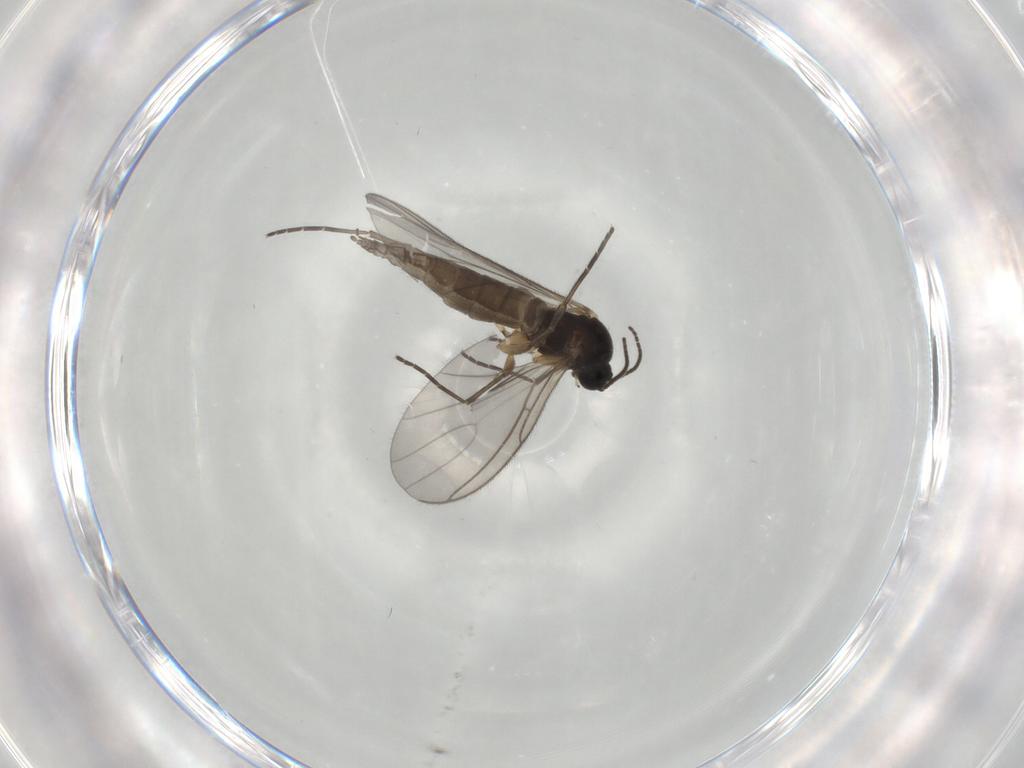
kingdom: Animalia
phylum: Arthropoda
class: Insecta
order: Diptera
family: Sciaridae
